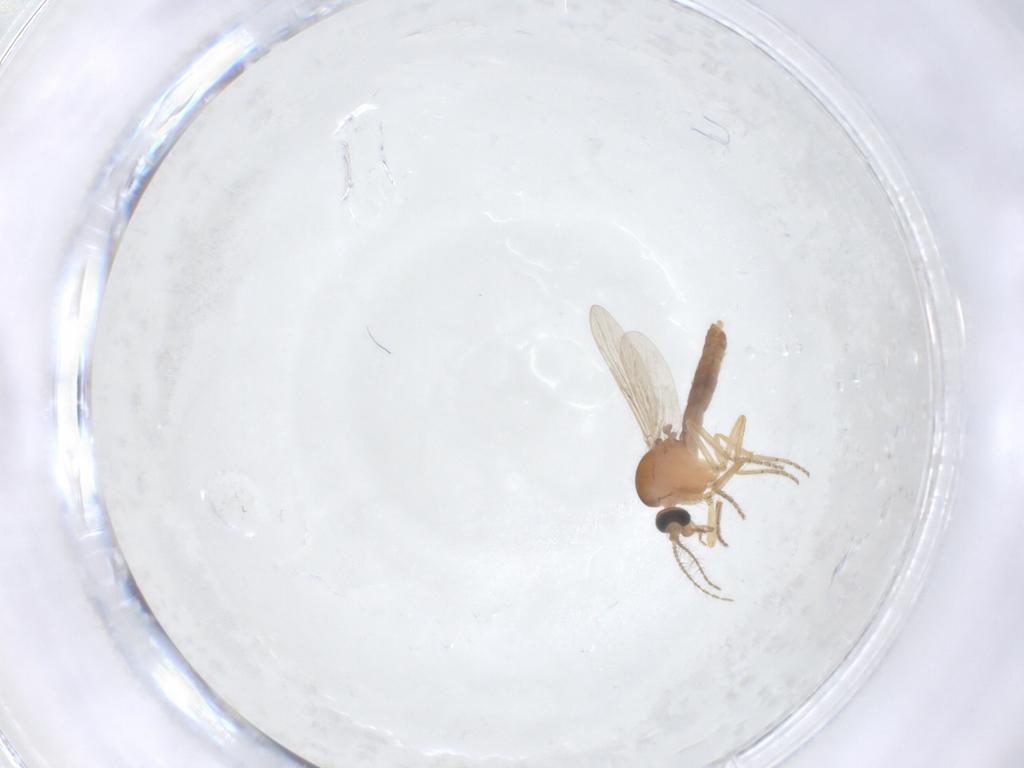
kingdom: Animalia
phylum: Arthropoda
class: Insecta
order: Diptera
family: Ceratopogonidae
